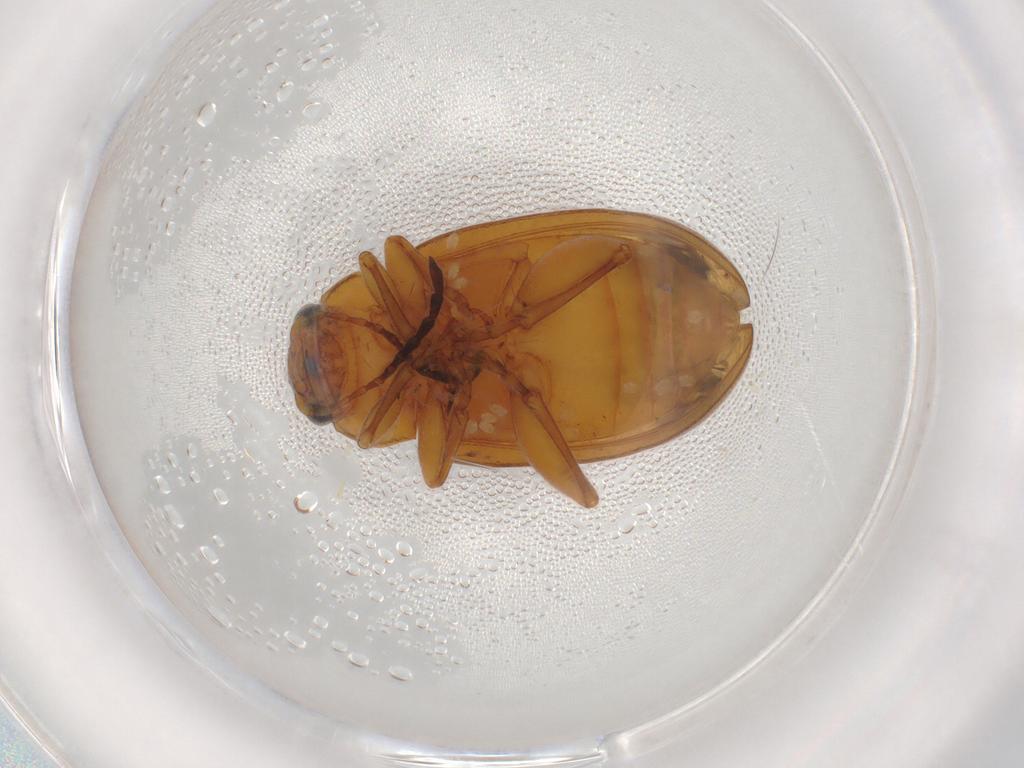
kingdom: Animalia
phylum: Arthropoda
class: Insecta
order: Coleoptera
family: Chrysomelidae
